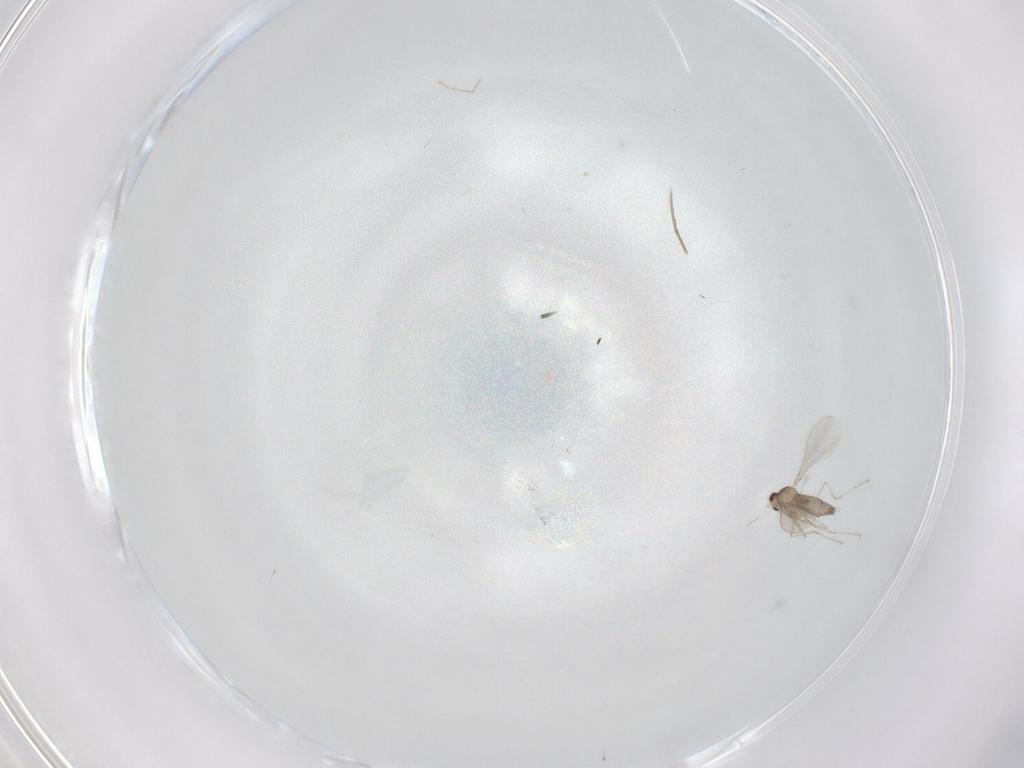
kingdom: Animalia
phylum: Arthropoda
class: Insecta
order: Diptera
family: Cecidomyiidae
